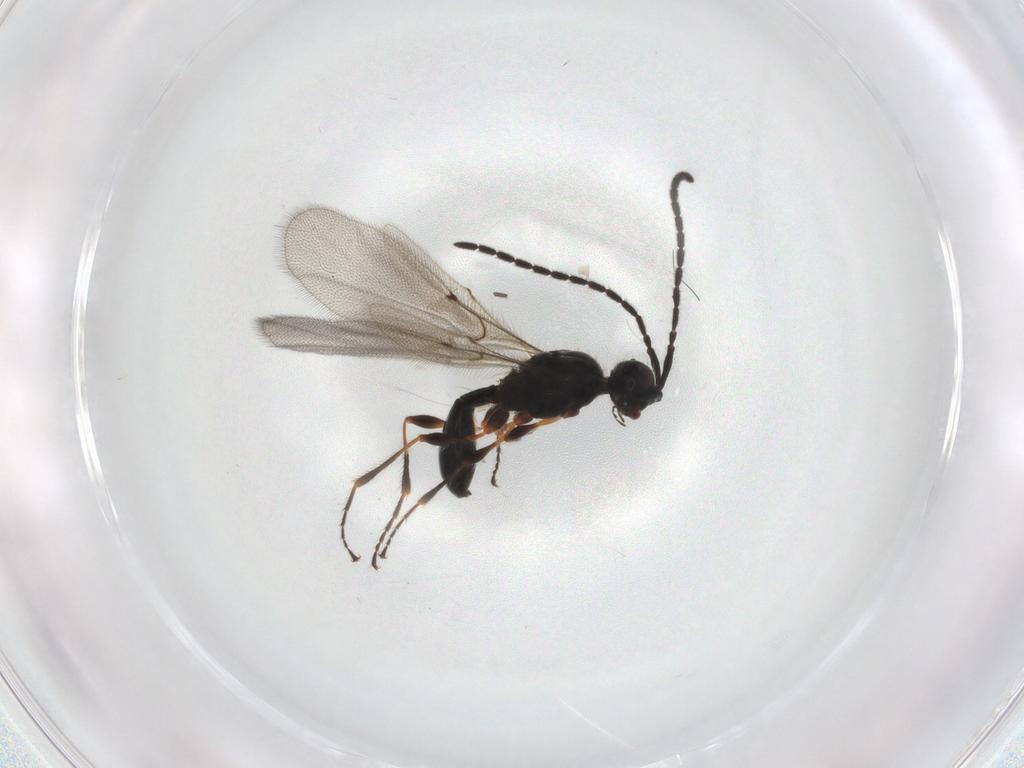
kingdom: Animalia
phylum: Arthropoda
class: Insecta
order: Hymenoptera
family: Diapriidae
